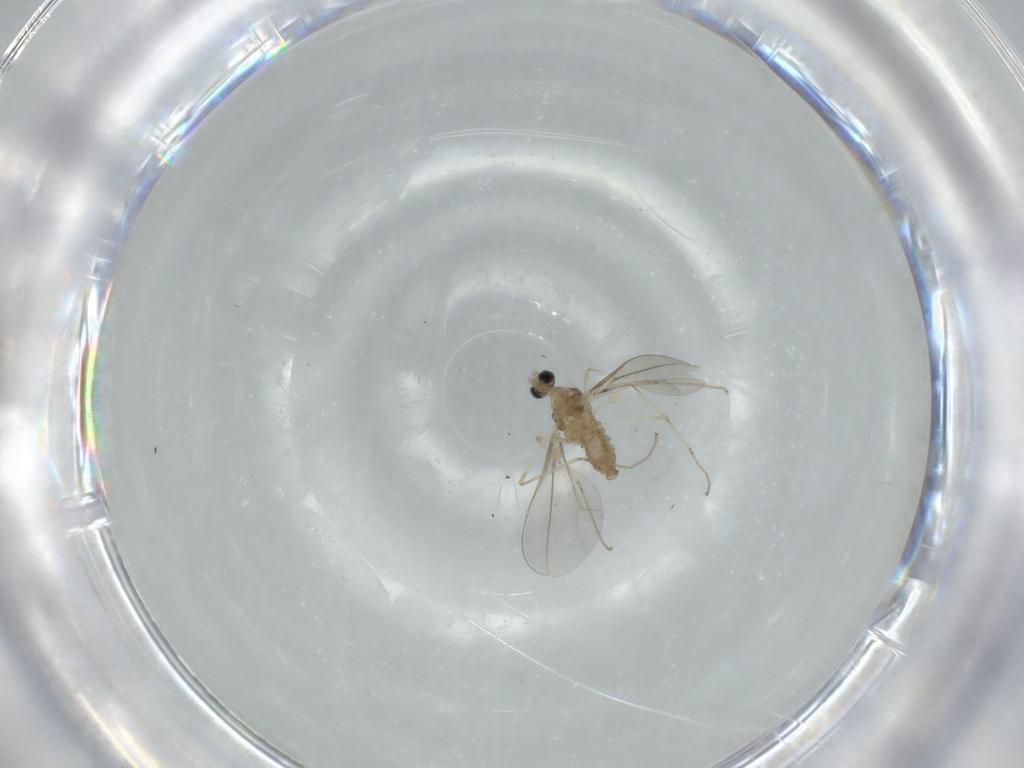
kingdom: Animalia
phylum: Arthropoda
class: Insecta
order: Diptera
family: Cecidomyiidae
